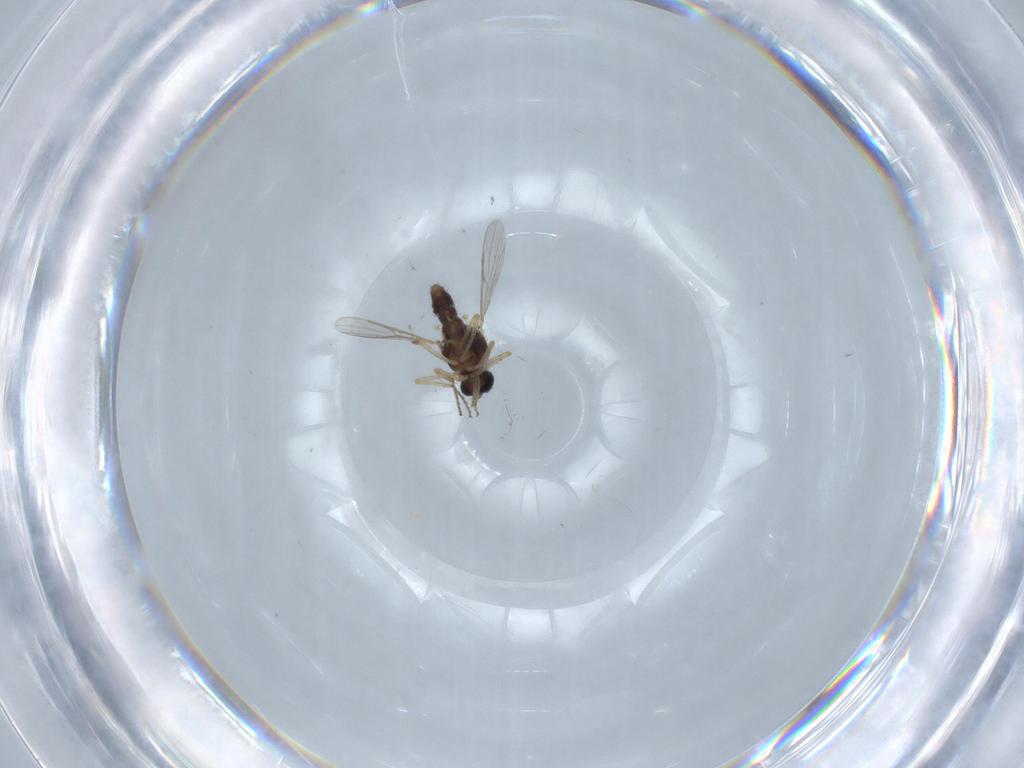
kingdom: Animalia
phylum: Arthropoda
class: Insecta
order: Diptera
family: Ceratopogonidae
